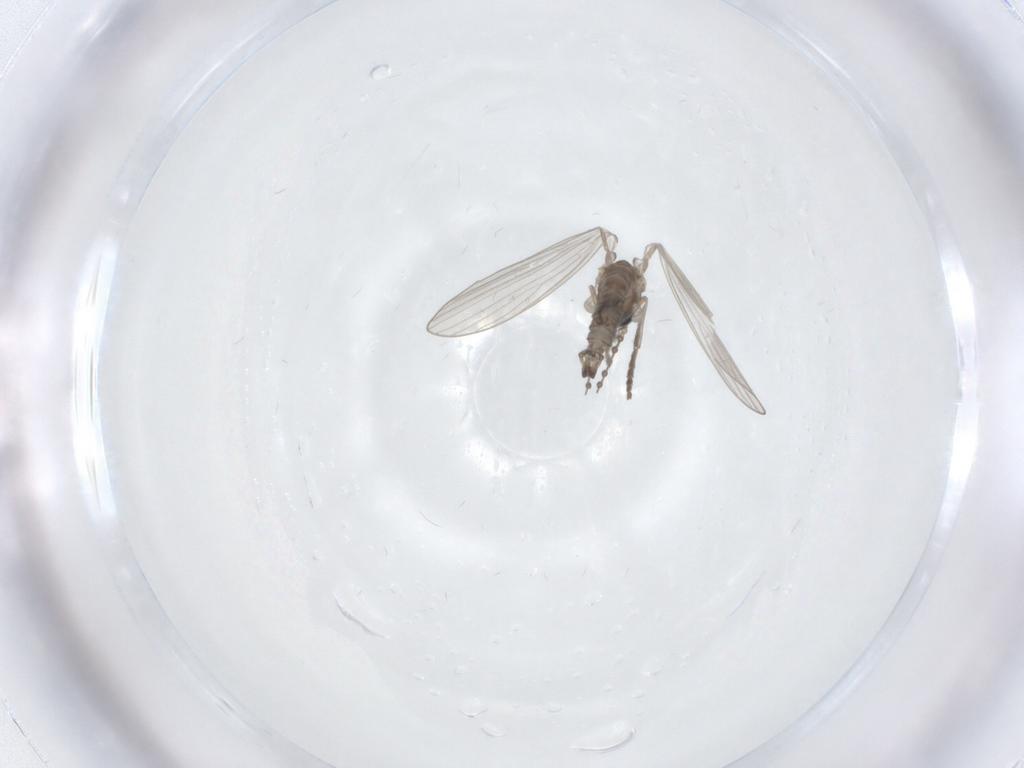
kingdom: Animalia
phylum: Arthropoda
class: Insecta
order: Diptera
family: Psychodidae
